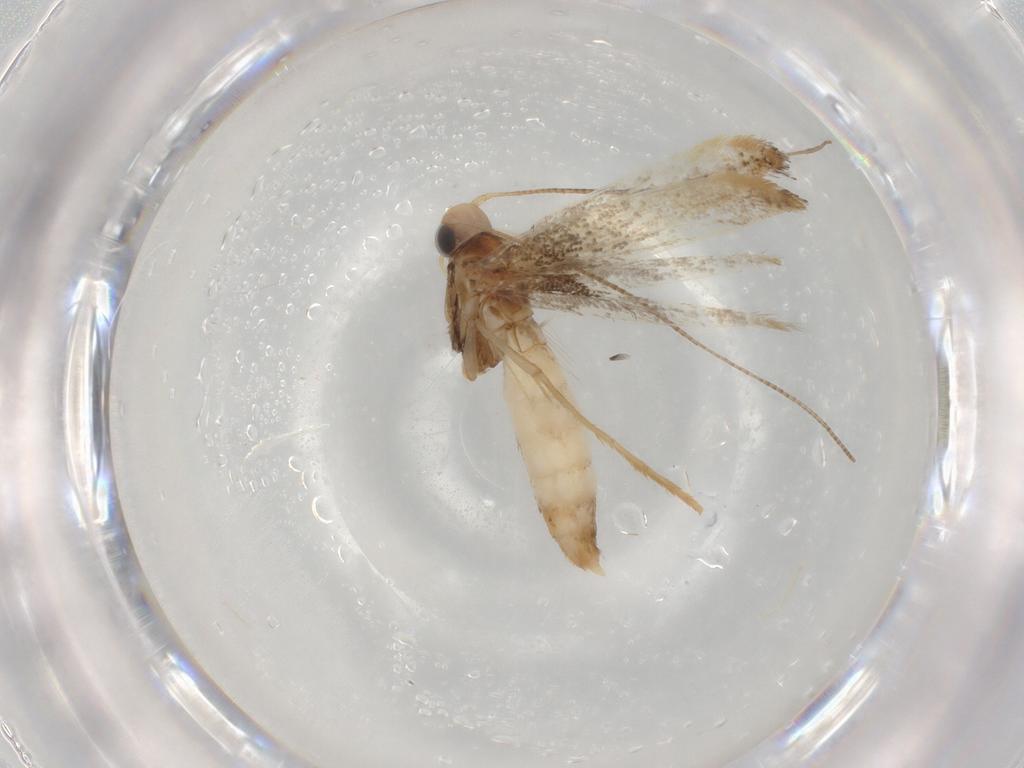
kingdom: Animalia
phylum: Arthropoda
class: Insecta
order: Lepidoptera
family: Gracillariidae
